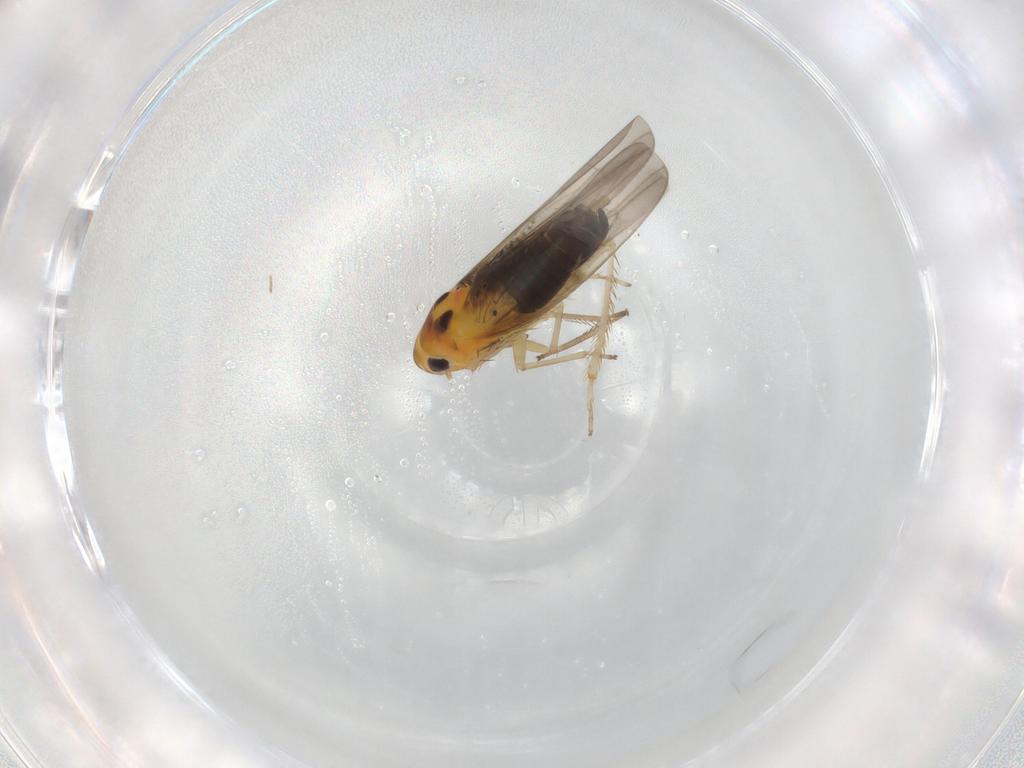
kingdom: Animalia
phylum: Arthropoda
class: Insecta
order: Hemiptera
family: Cicadellidae
